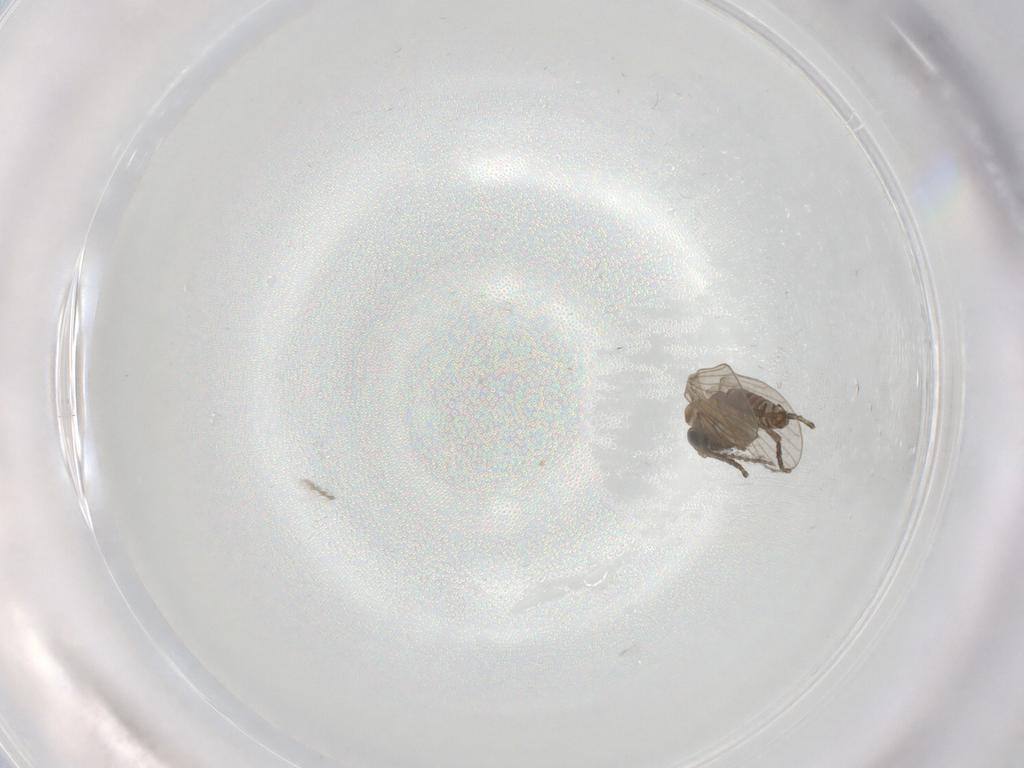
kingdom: Animalia
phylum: Arthropoda
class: Insecta
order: Diptera
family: Chironomidae
